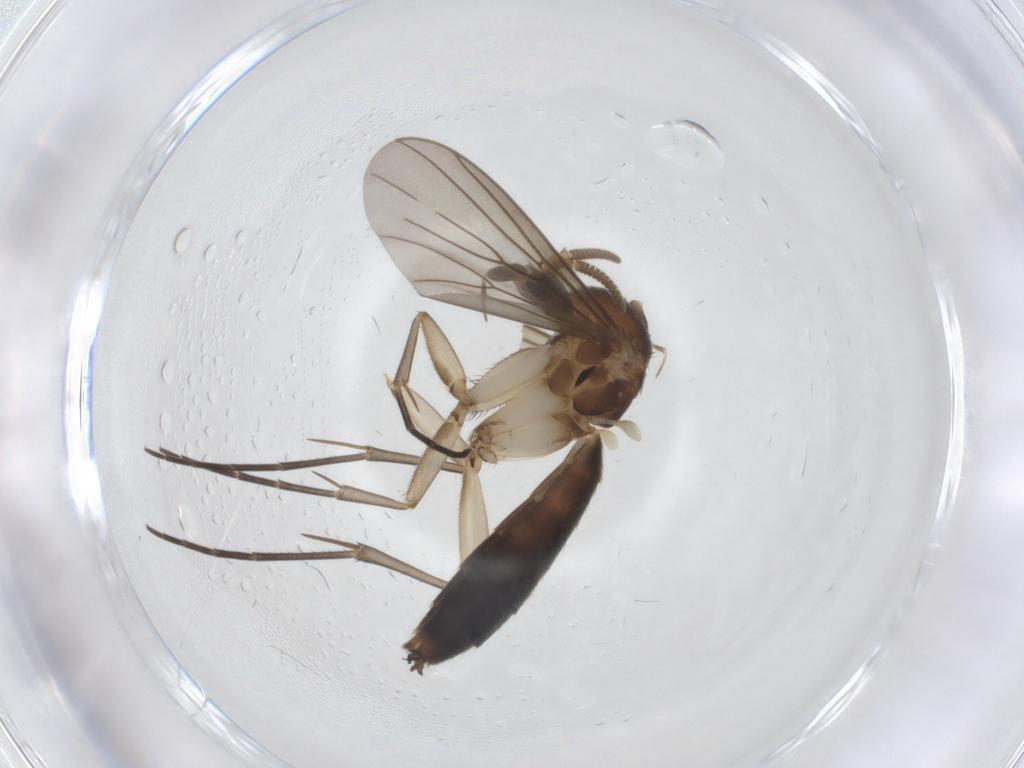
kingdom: Animalia
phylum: Arthropoda
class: Insecta
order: Diptera
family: Mycetophilidae
